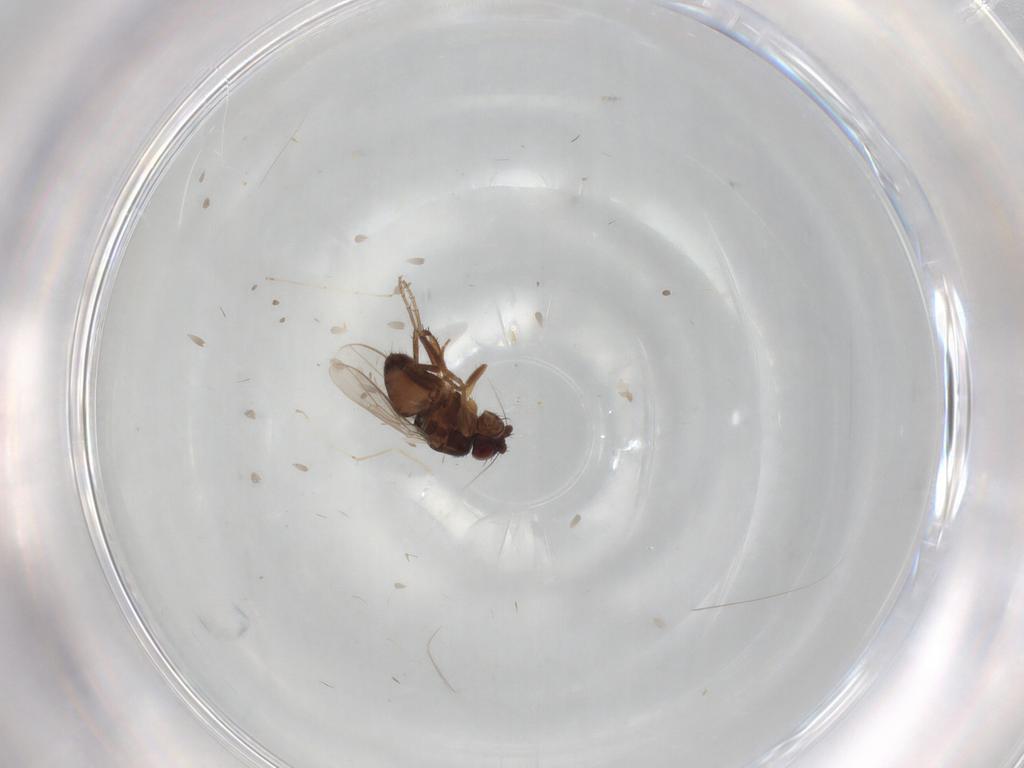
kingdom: Animalia
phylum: Arthropoda
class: Insecta
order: Diptera
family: Sphaeroceridae
